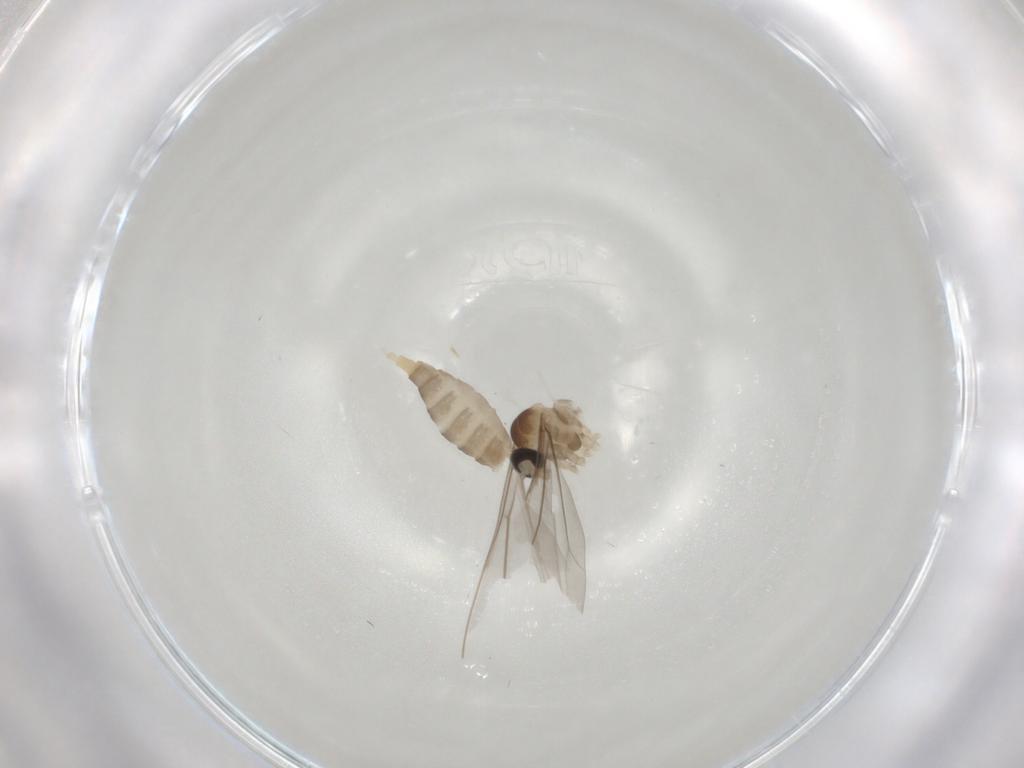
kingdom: Animalia
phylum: Arthropoda
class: Insecta
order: Diptera
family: Cecidomyiidae
